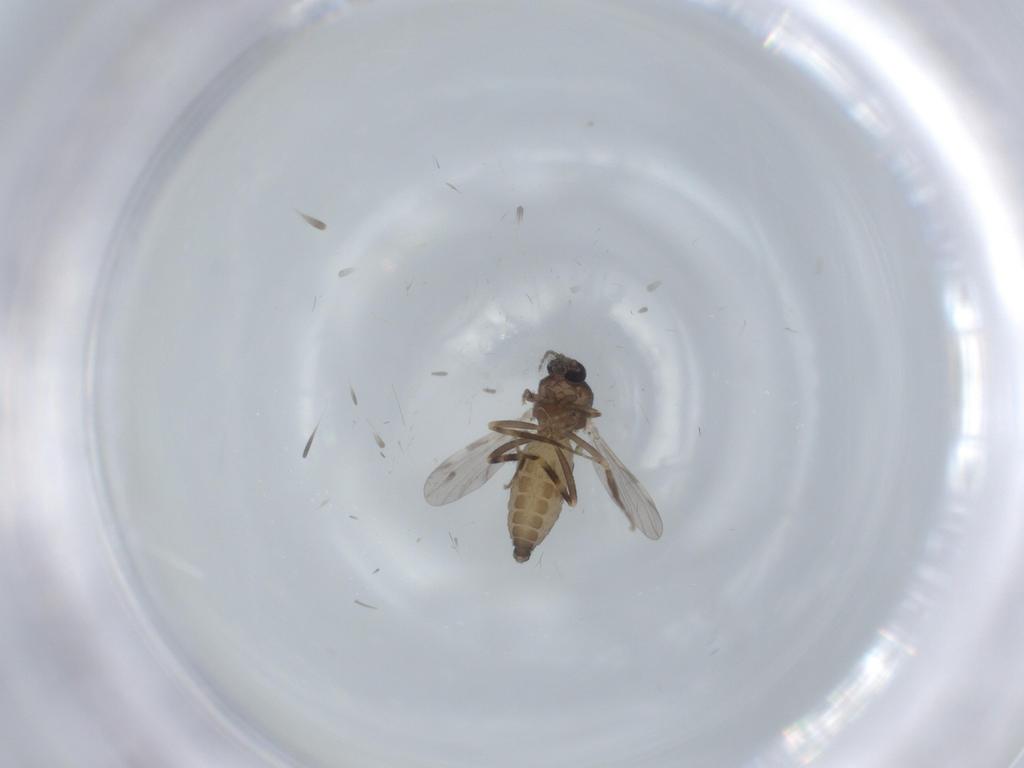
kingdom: Animalia
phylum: Arthropoda
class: Insecta
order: Diptera
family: Ceratopogonidae
